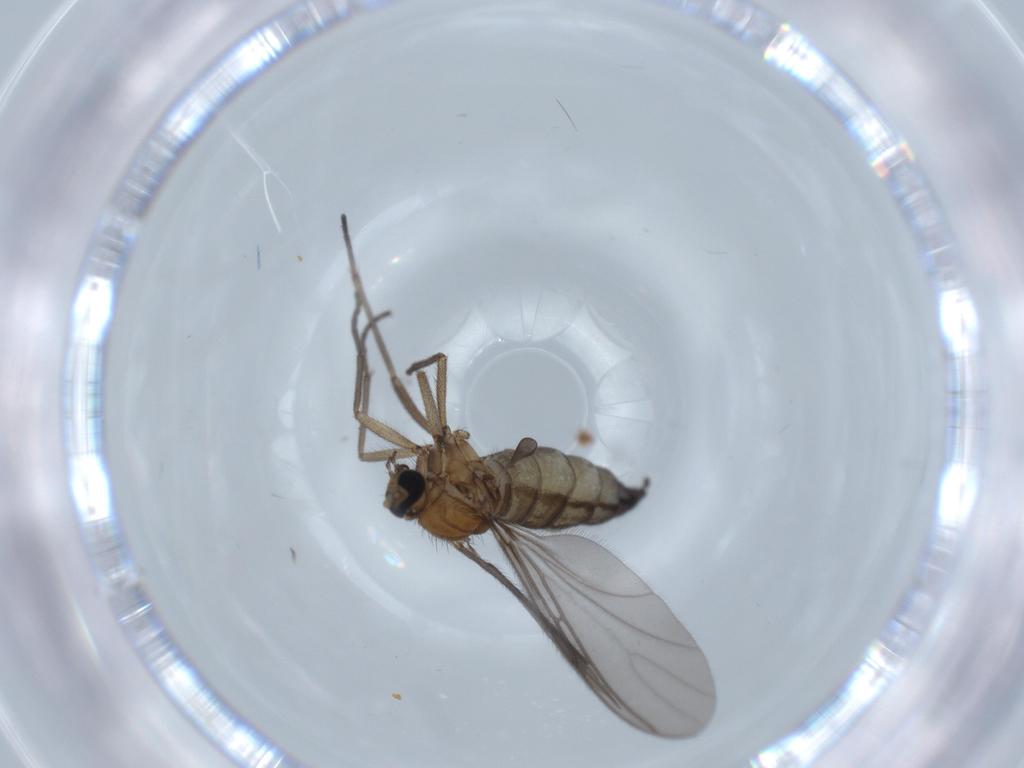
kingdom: Animalia
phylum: Arthropoda
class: Insecta
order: Diptera
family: Sciaridae
